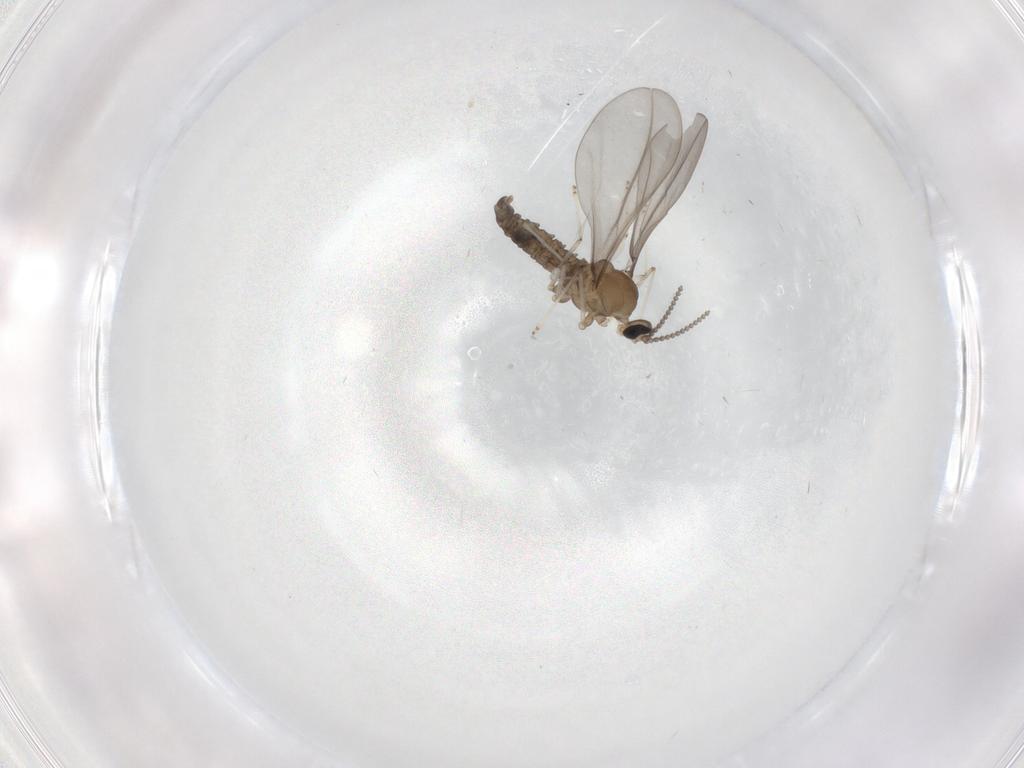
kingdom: Animalia
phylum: Arthropoda
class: Insecta
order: Diptera
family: Cecidomyiidae
